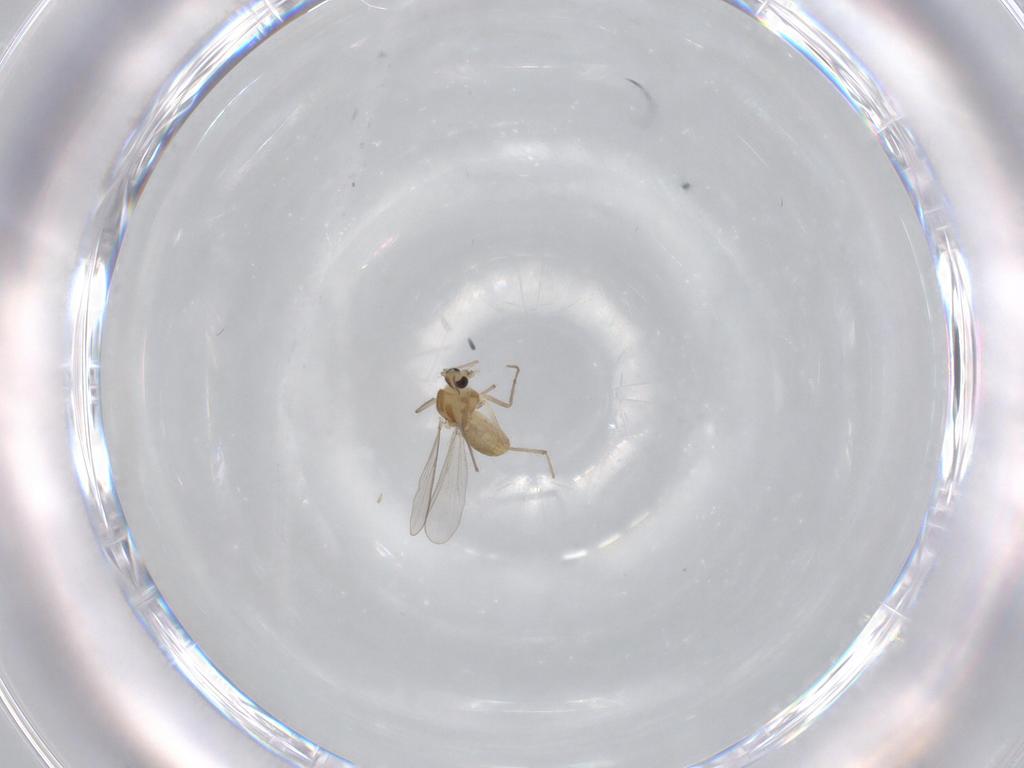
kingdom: Animalia
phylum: Arthropoda
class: Insecta
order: Diptera
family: Chironomidae
